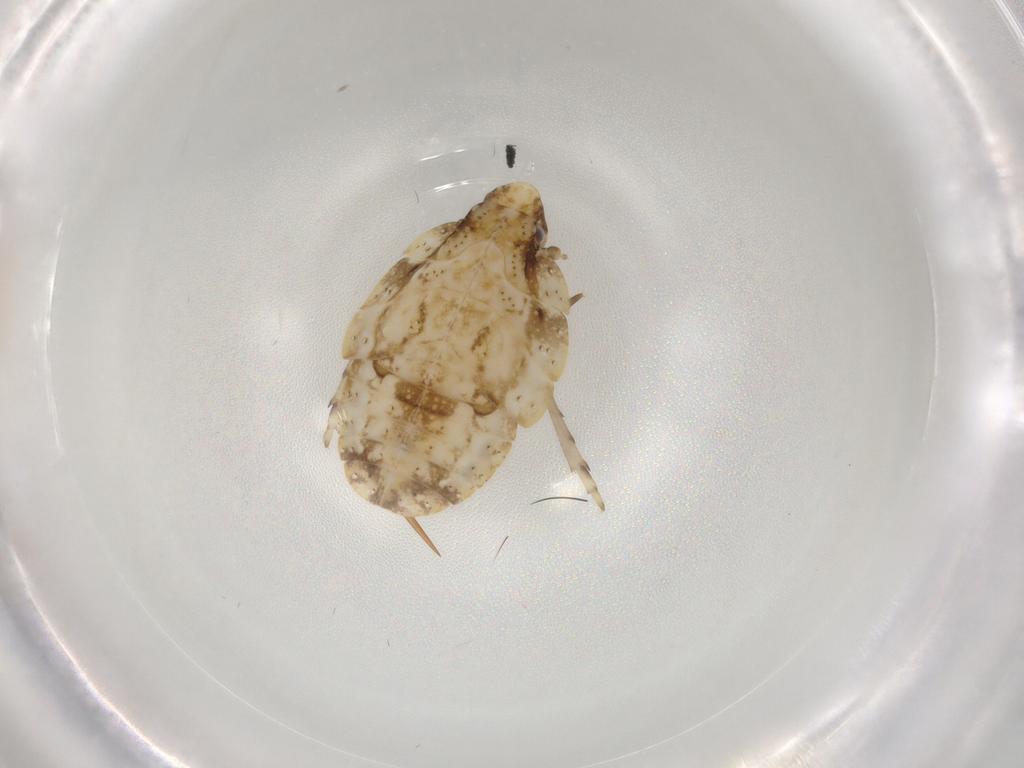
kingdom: Animalia
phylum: Arthropoda
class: Insecta
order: Hemiptera
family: Flatidae
